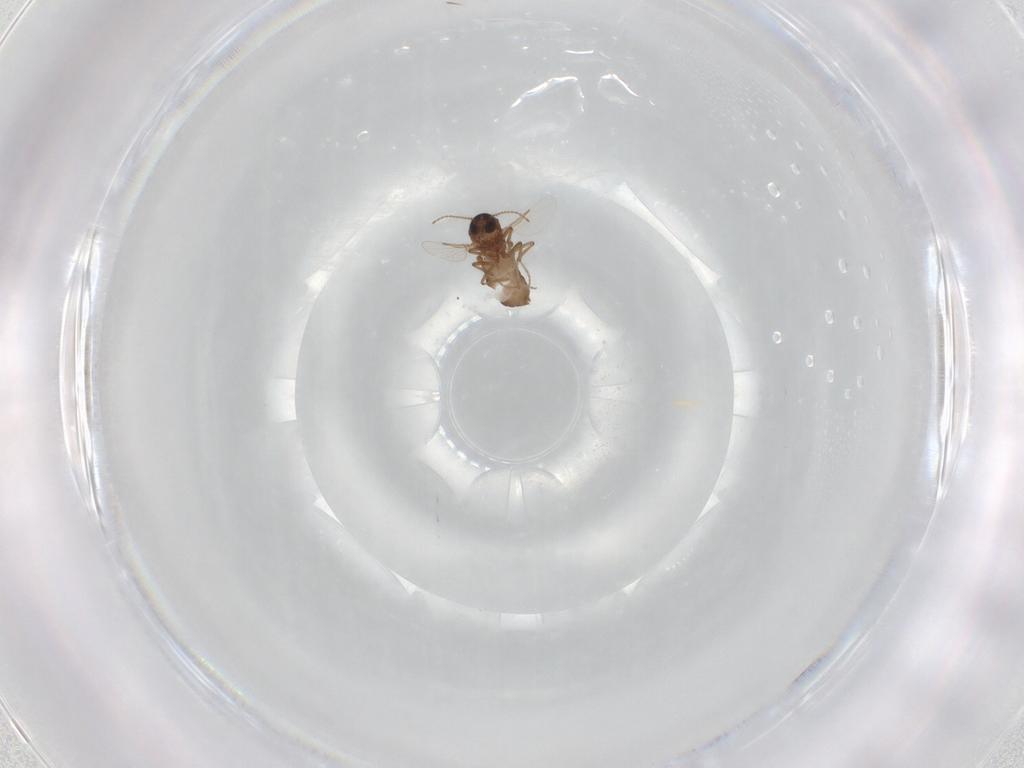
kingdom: Animalia
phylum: Arthropoda
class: Insecta
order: Diptera
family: Ceratopogonidae
